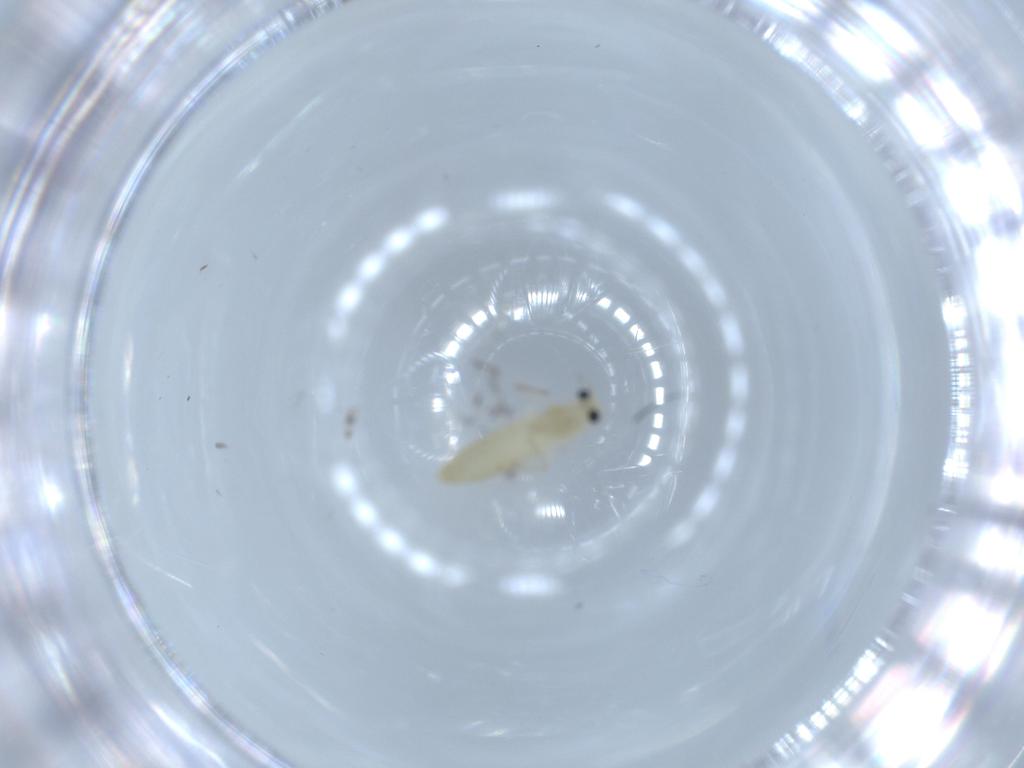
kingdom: Animalia
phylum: Arthropoda
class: Insecta
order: Diptera
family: Chironomidae
